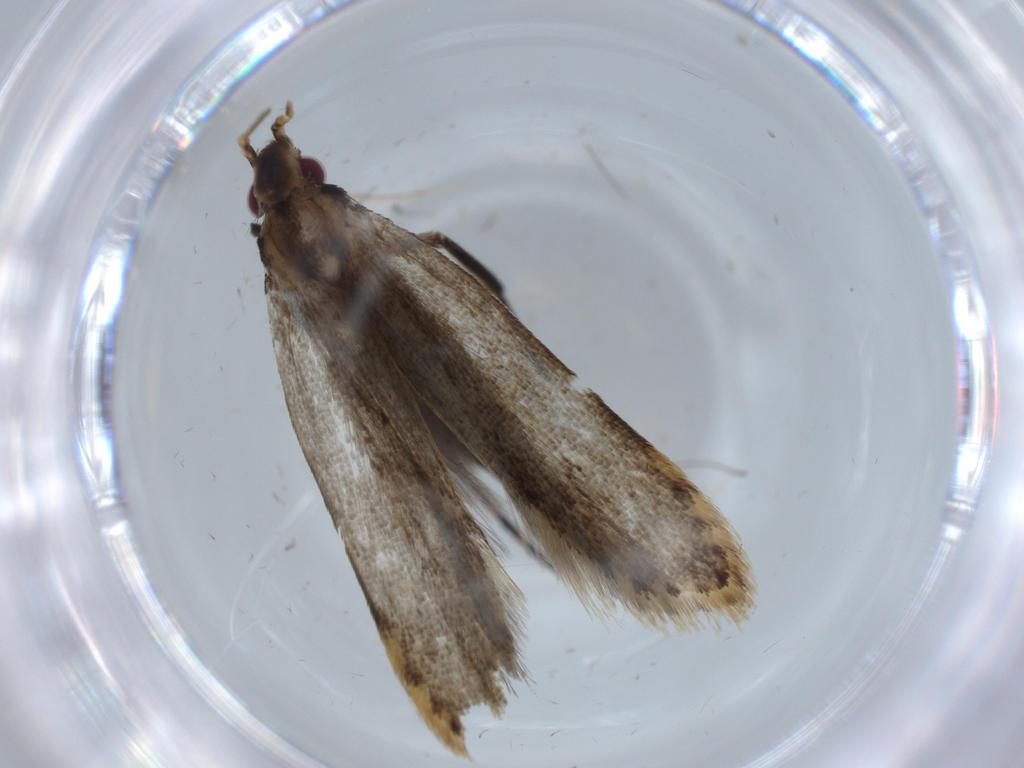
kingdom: Animalia
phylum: Arthropoda
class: Insecta
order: Lepidoptera
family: Gelechiidae
